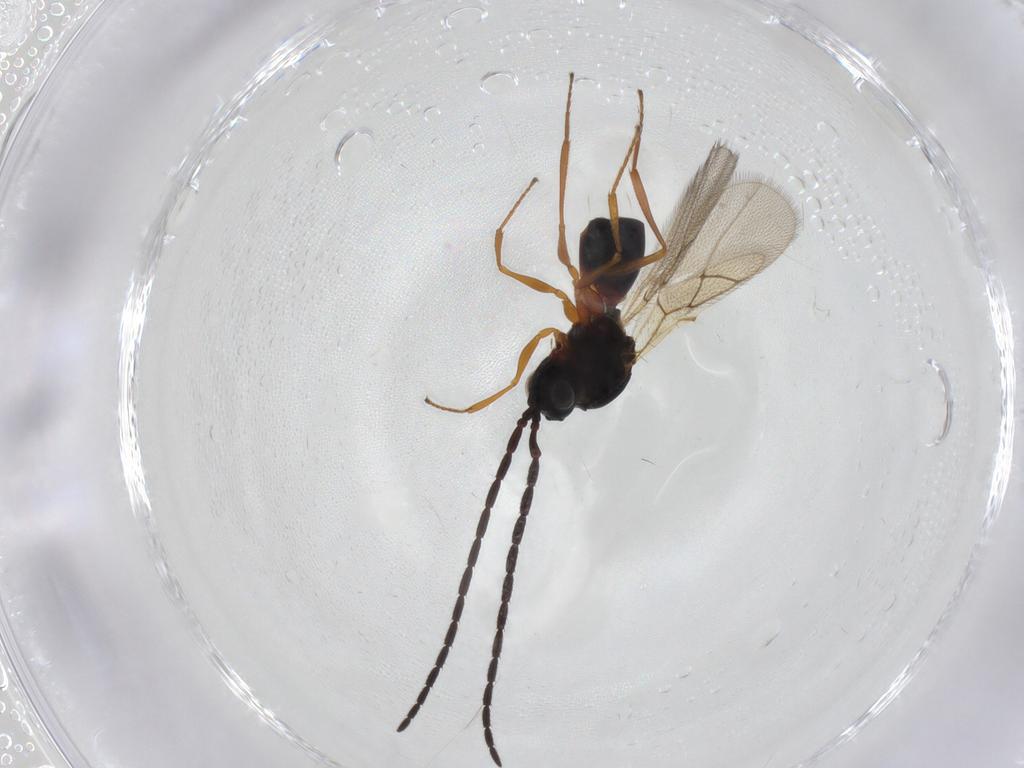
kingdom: Animalia
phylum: Arthropoda
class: Insecta
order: Hymenoptera
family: Figitidae
